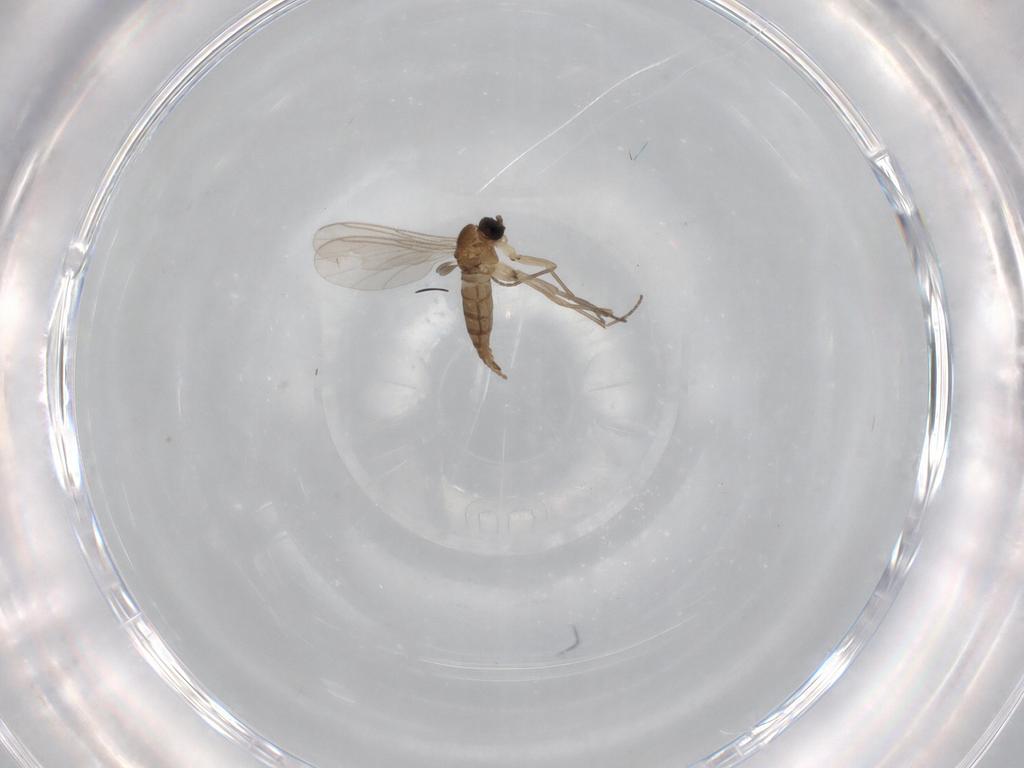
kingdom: Animalia
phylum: Arthropoda
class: Insecta
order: Diptera
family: Sciaridae
